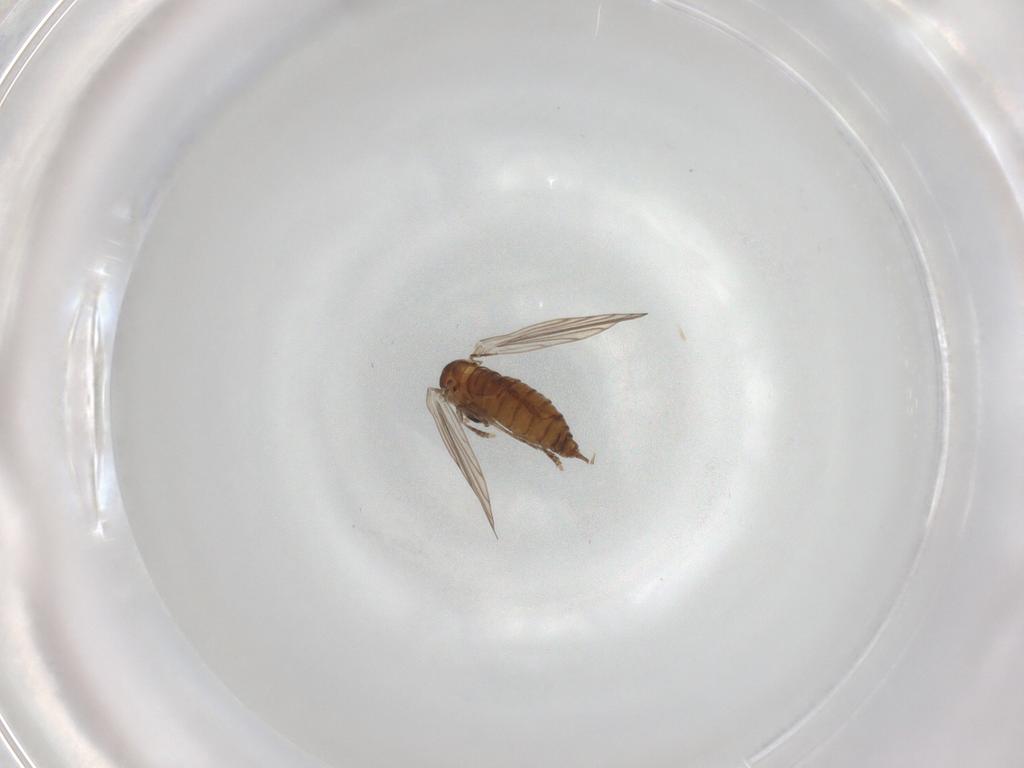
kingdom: Animalia
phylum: Arthropoda
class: Insecta
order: Diptera
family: Psychodidae
